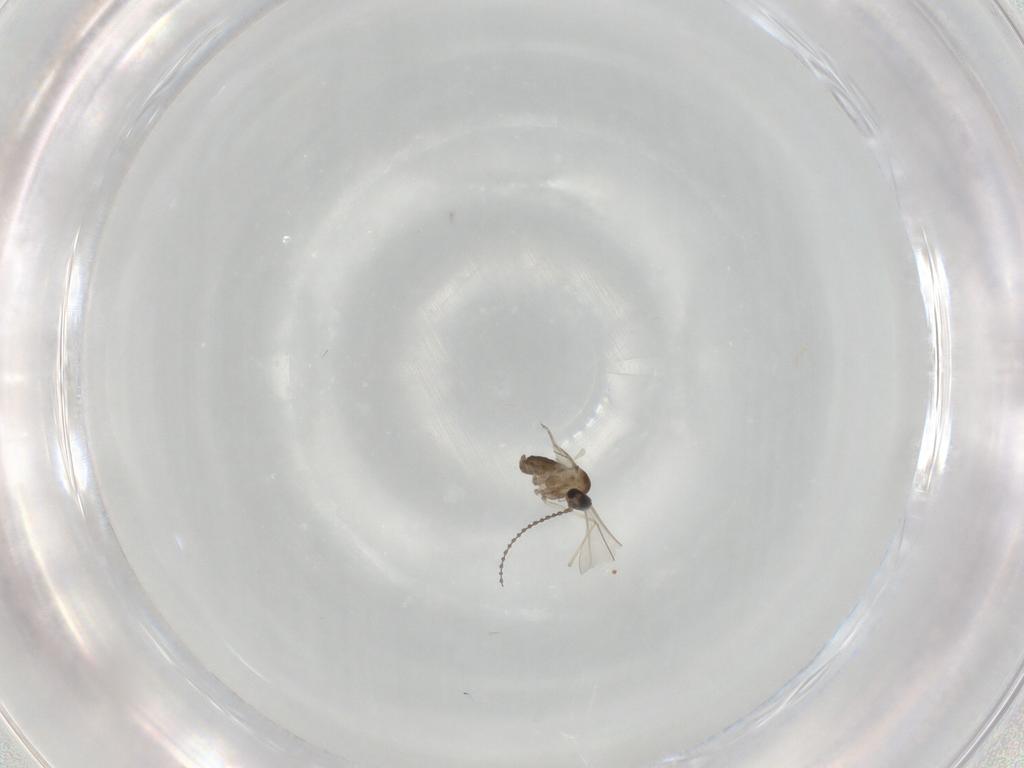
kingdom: Animalia
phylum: Arthropoda
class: Insecta
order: Diptera
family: Cecidomyiidae
